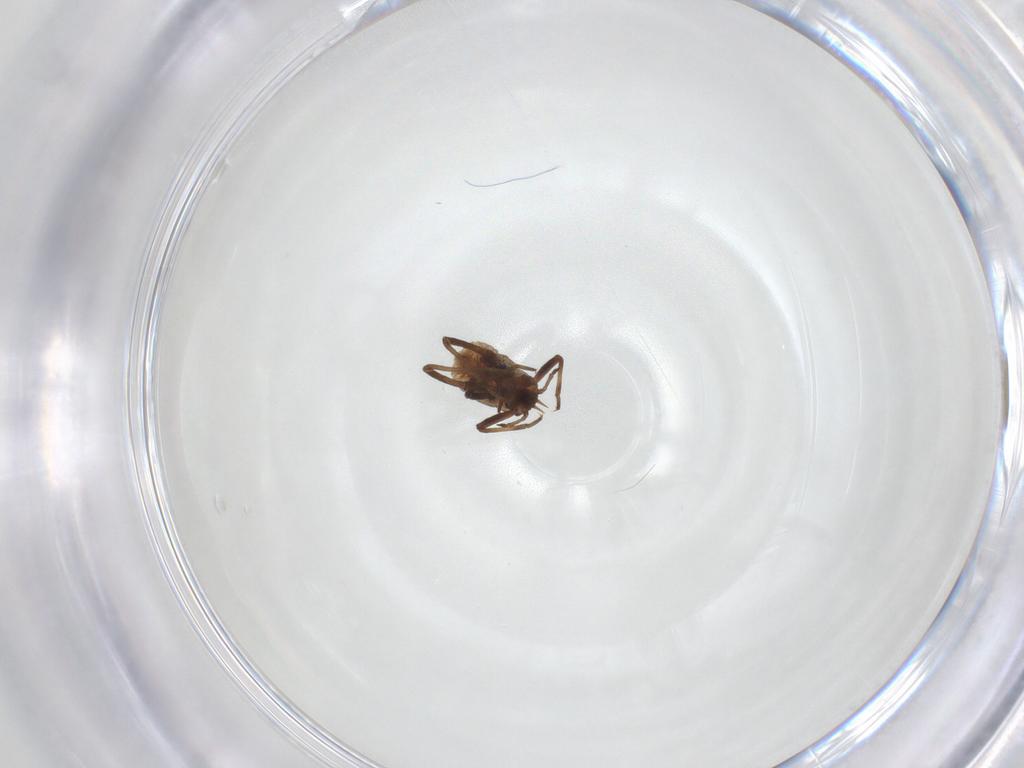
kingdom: Animalia
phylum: Arthropoda
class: Insecta
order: Hemiptera
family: Aphididae
